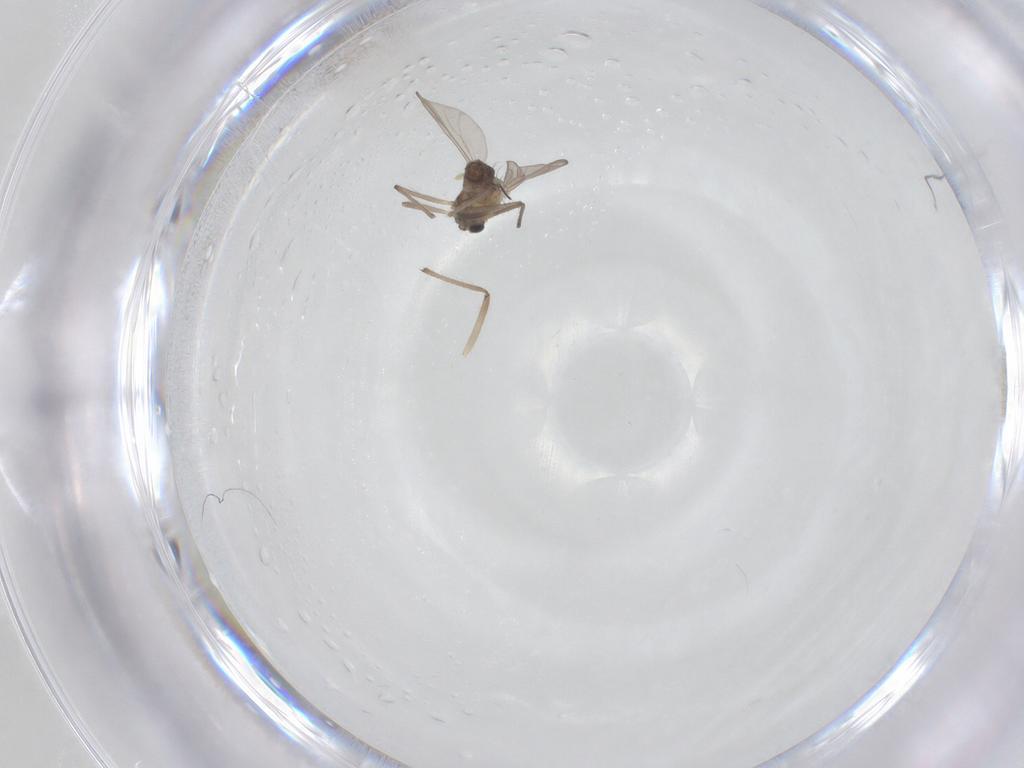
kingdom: Animalia
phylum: Arthropoda
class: Insecta
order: Diptera
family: Chironomidae
